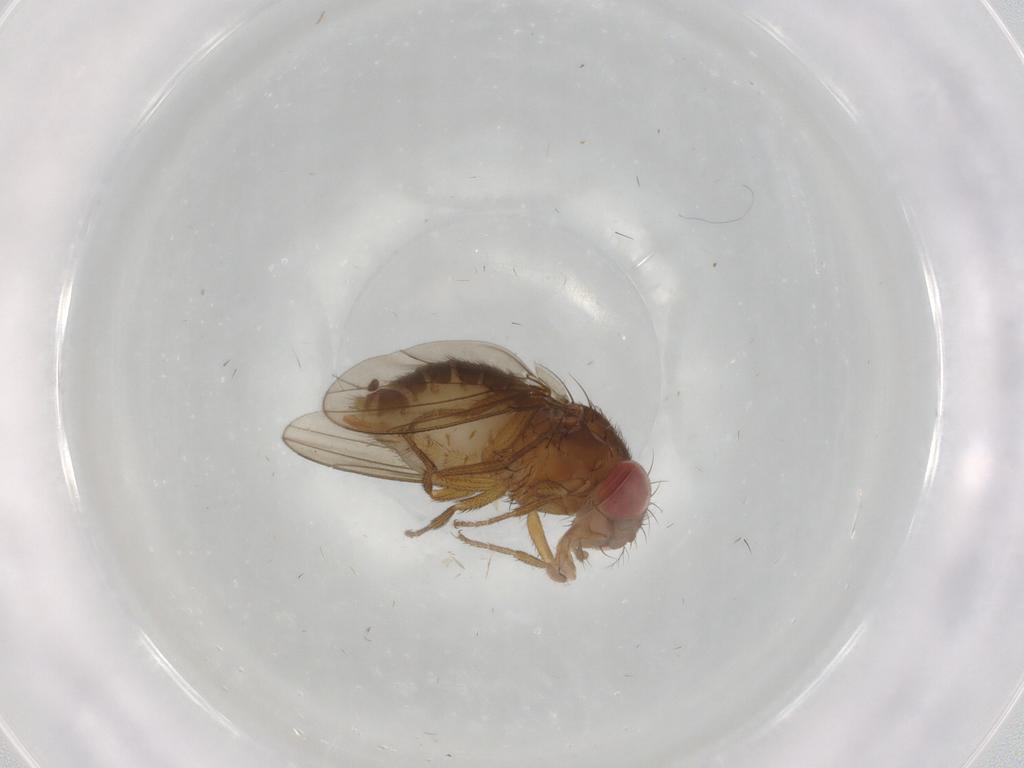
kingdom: Animalia
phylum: Arthropoda
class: Insecta
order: Diptera
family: Drosophilidae
